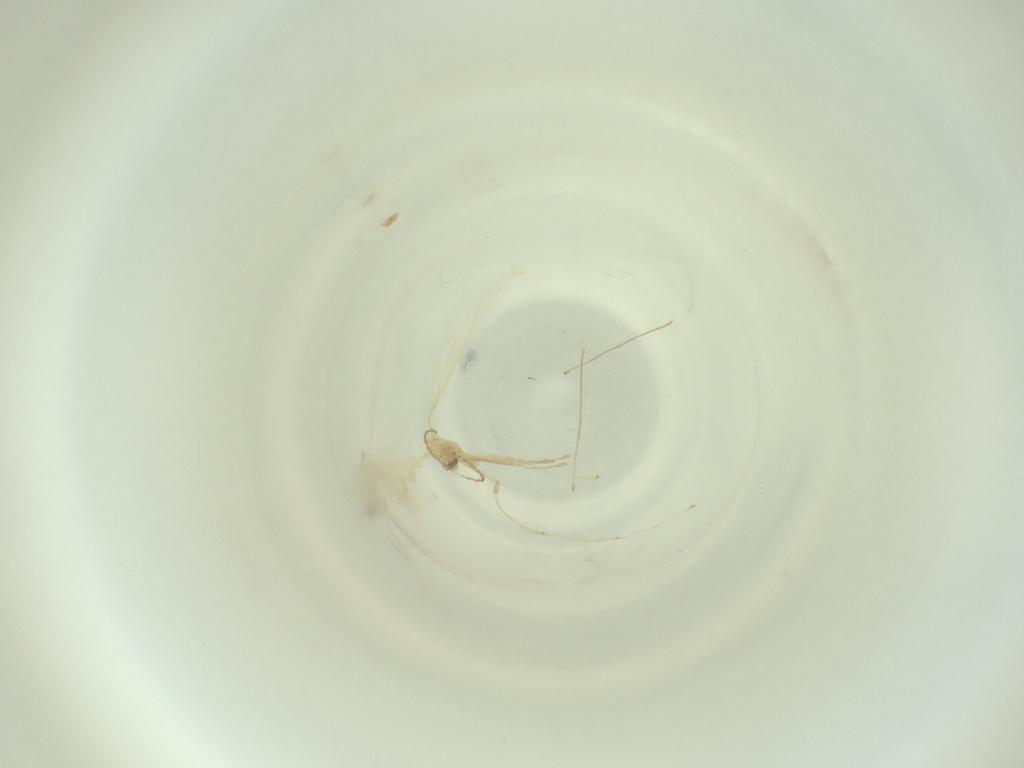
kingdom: Animalia
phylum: Arthropoda
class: Insecta
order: Diptera
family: Cecidomyiidae
